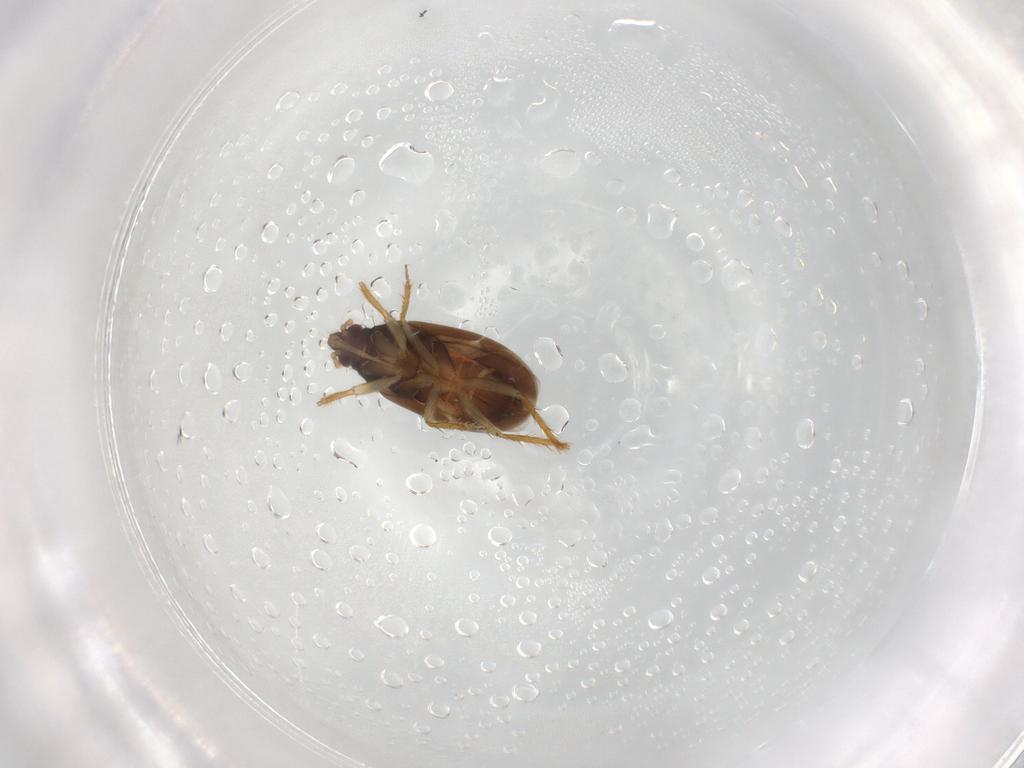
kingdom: Animalia
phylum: Arthropoda
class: Insecta
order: Hemiptera
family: Ceratocombidae
